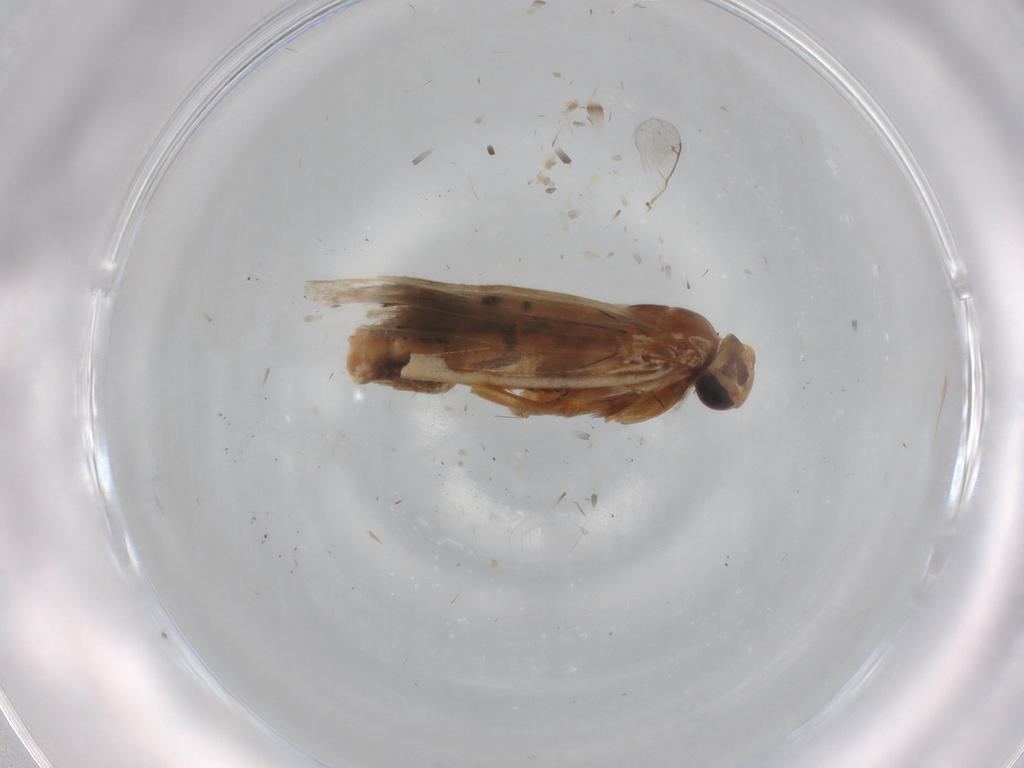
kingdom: Animalia
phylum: Arthropoda
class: Insecta
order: Lepidoptera
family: Gelechiidae
